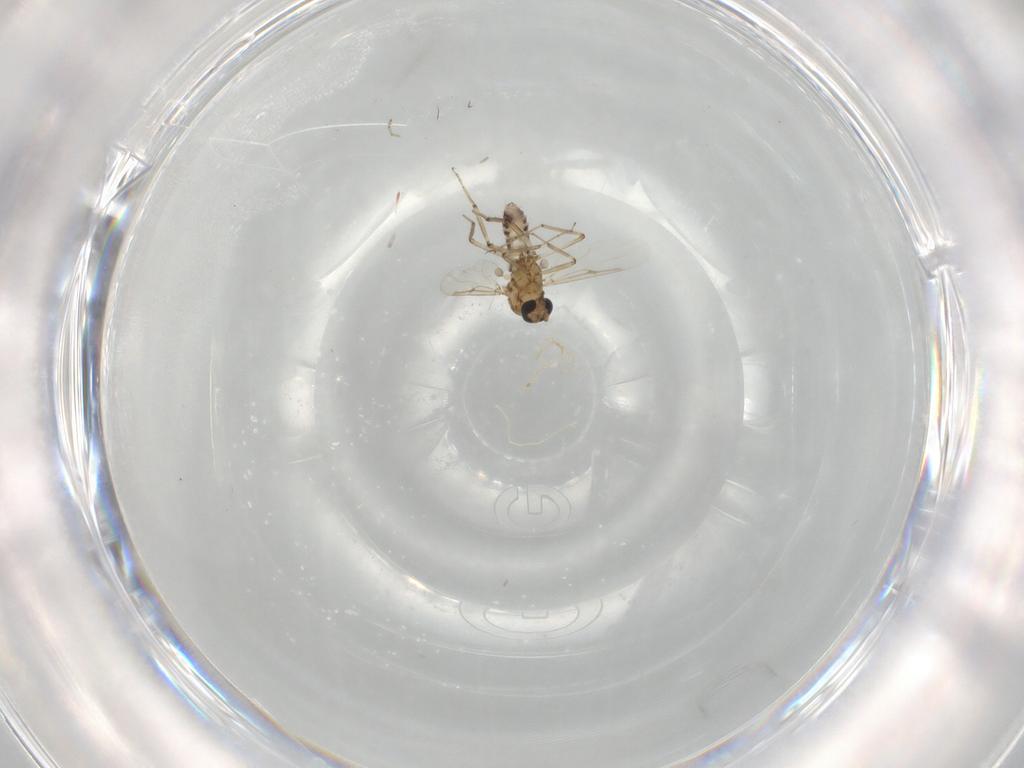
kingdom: Animalia
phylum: Arthropoda
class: Insecta
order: Diptera
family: Ceratopogonidae
